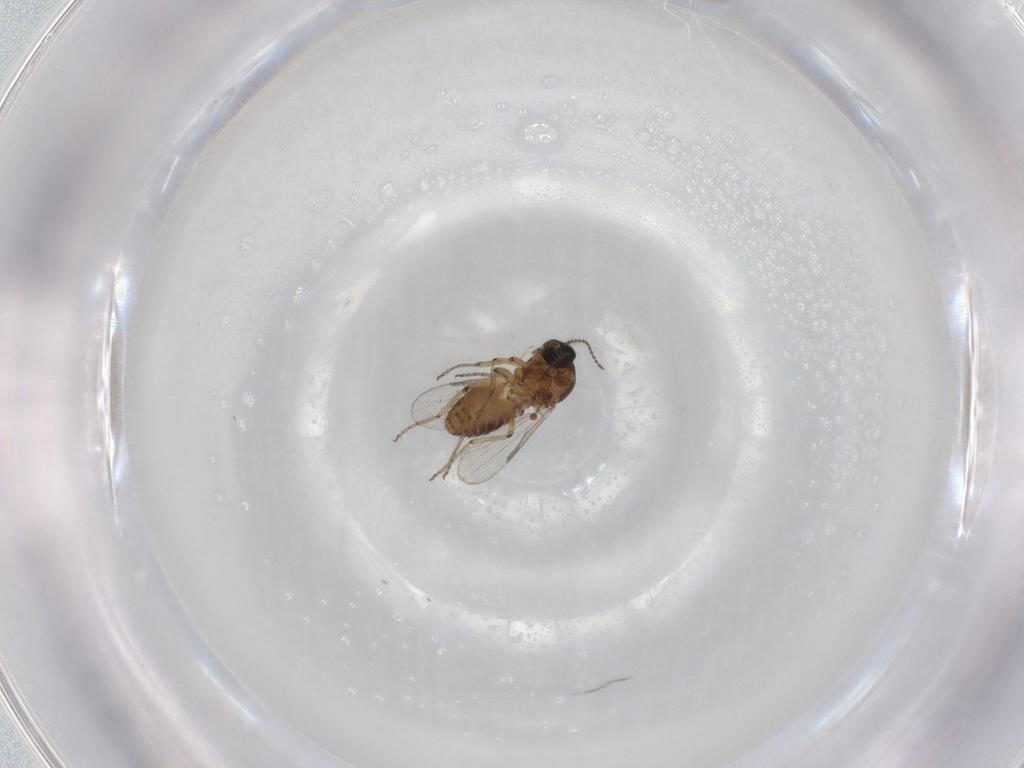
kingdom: Animalia
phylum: Arthropoda
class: Insecta
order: Diptera
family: Ceratopogonidae
